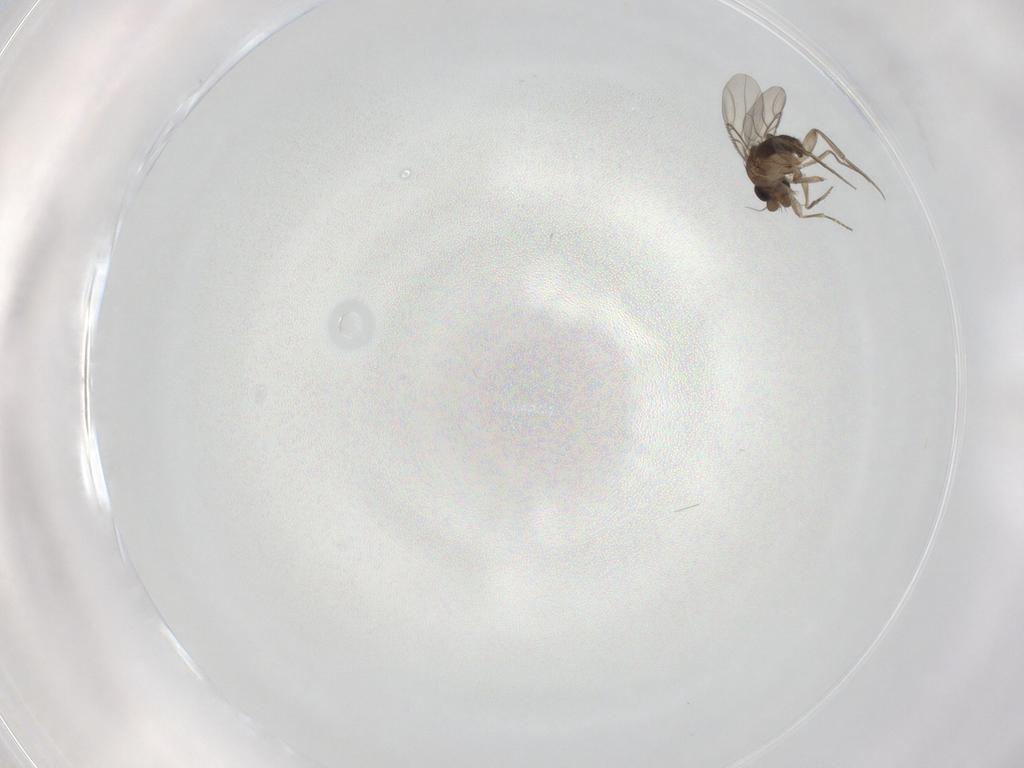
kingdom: Animalia
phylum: Arthropoda
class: Insecta
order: Diptera
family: Phoridae
